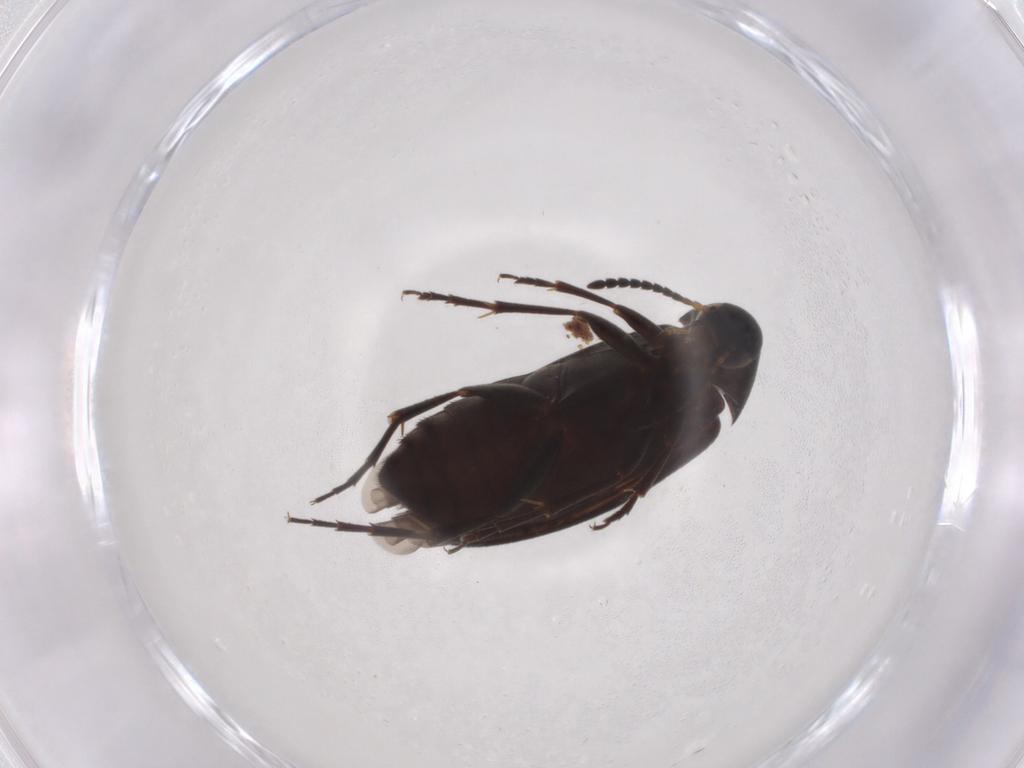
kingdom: Animalia
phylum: Arthropoda
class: Insecta
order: Coleoptera
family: Scraptiidae
